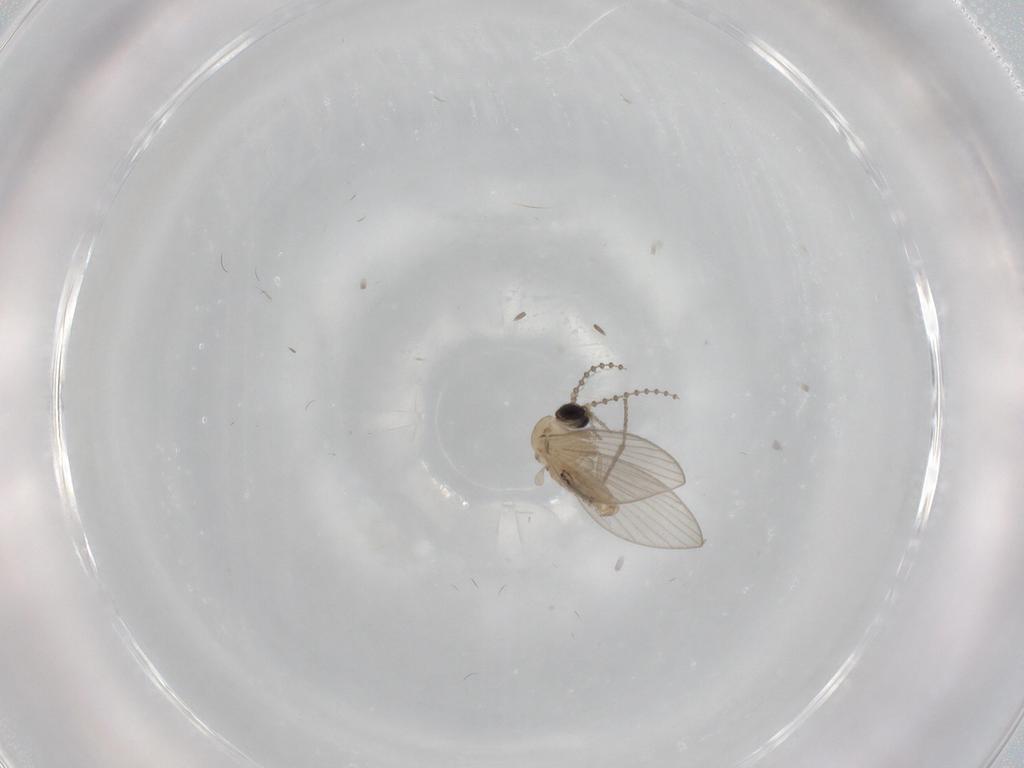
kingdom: Animalia
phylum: Arthropoda
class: Insecta
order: Diptera
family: Psychodidae
